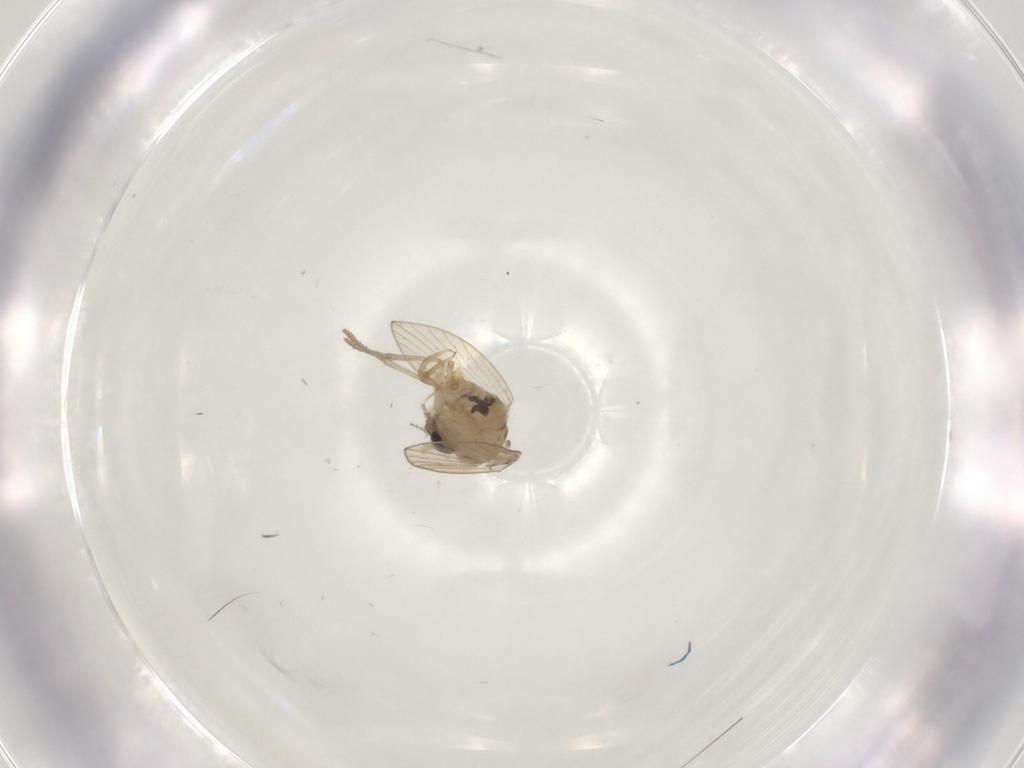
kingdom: Animalia
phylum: Arthropoda
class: Insecta
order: Diptera
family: Psychodidae
